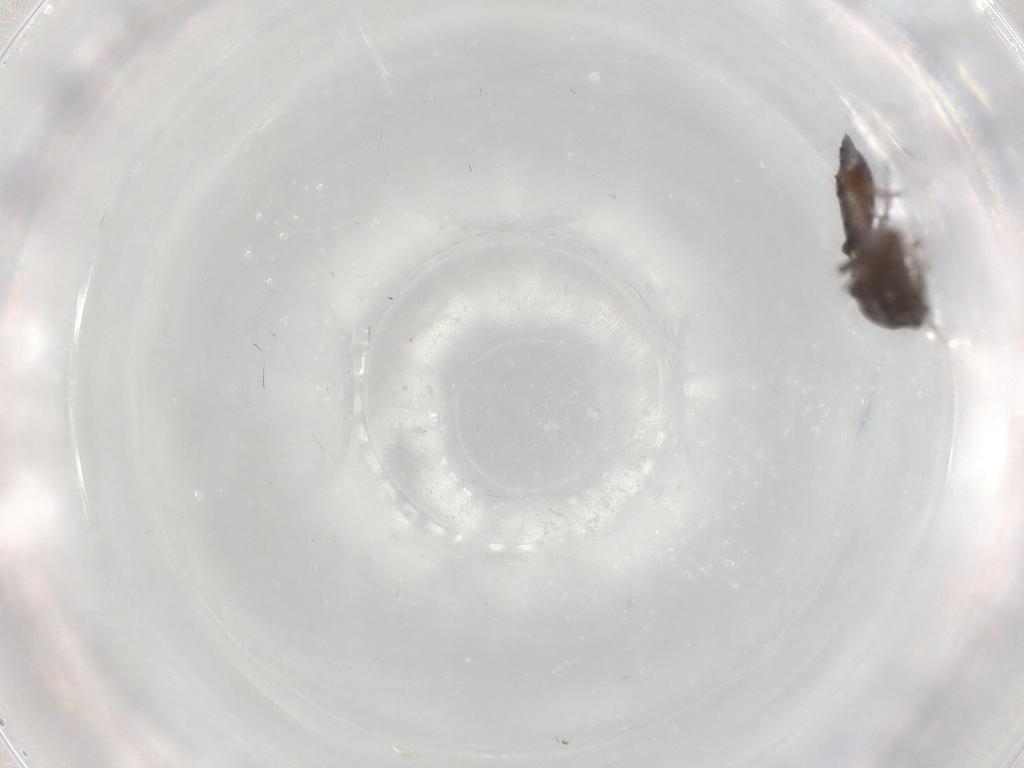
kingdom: Animalia
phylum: Arthropoda
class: Insecta
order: Diptera
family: Ceratopogonidae
